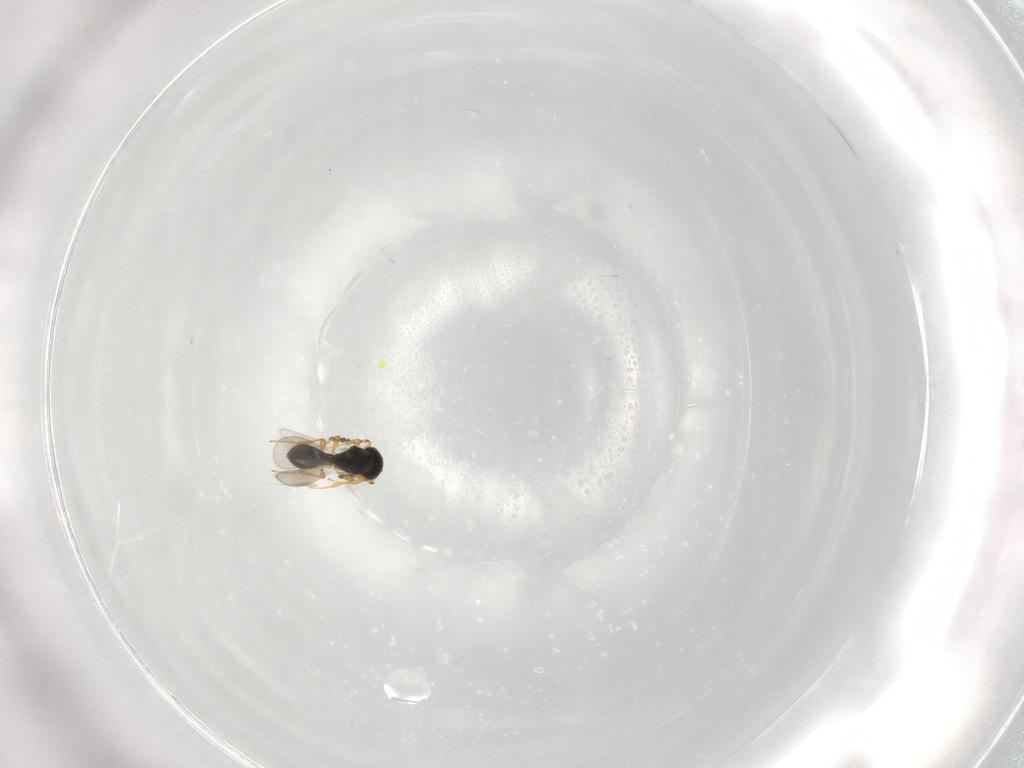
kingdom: Animalia
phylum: Arthropoda
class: Insecta
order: Hymenoptera
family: Platygastridae
